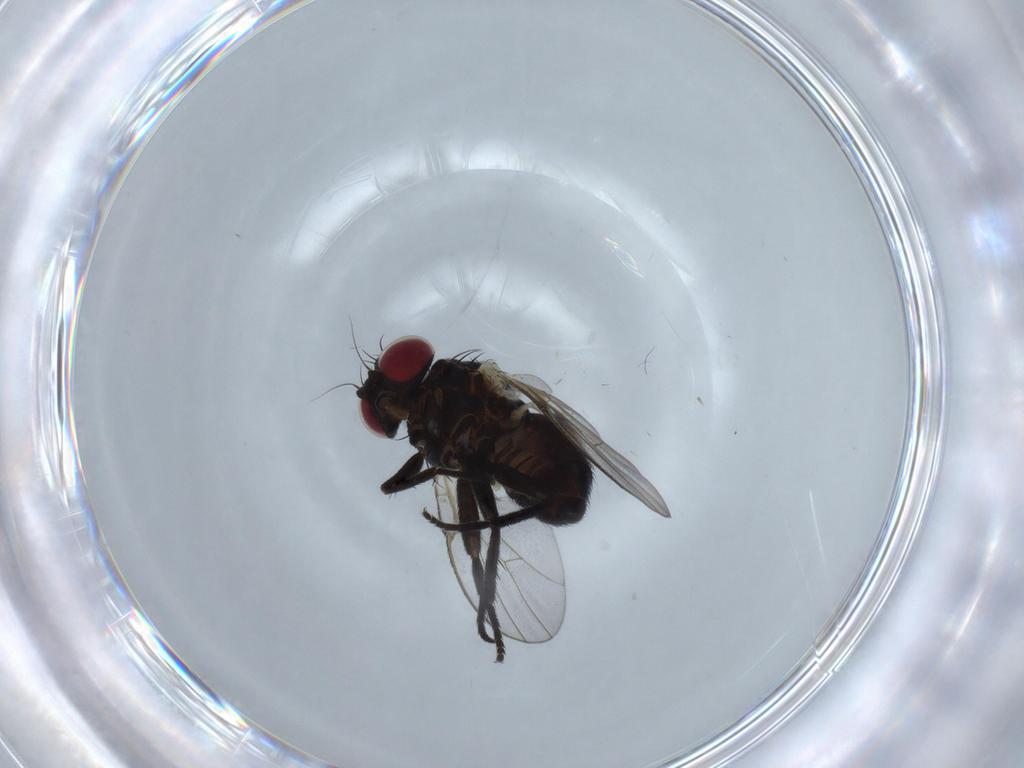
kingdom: Animalia
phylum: Arthropoda
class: Insecta
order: Diptera
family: Agromyzidae
